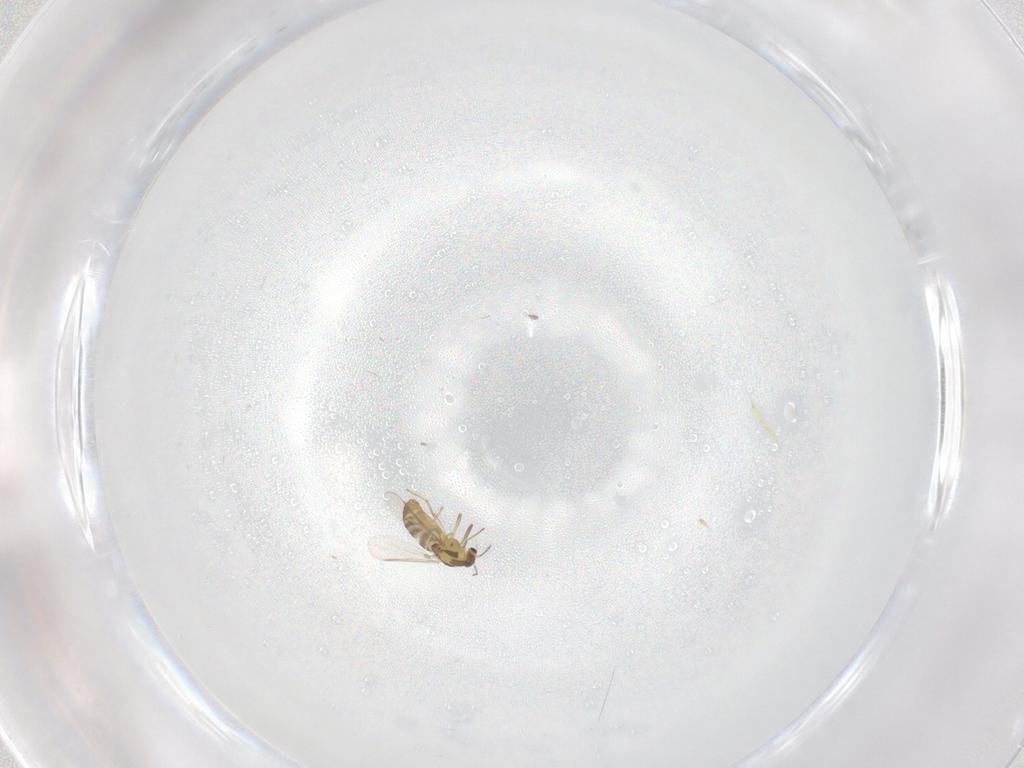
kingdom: Animalia
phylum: Arthropoda
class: Insecta
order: Diptera
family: Chironomidae
